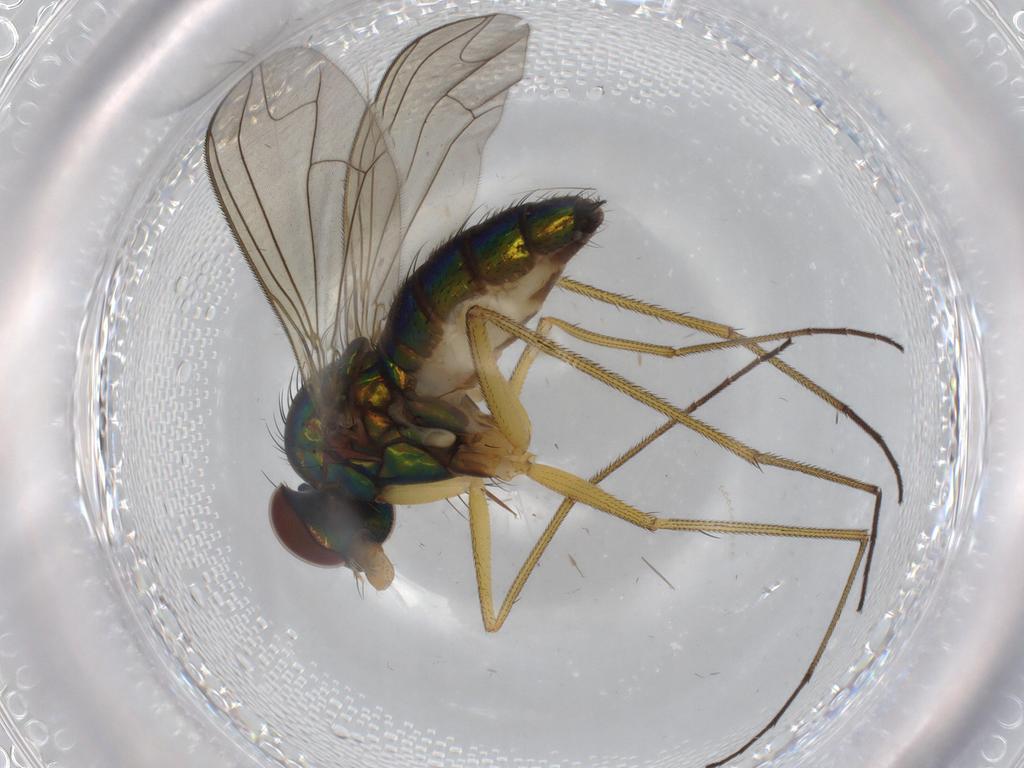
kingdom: Animalia
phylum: Arthropoda
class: Insecta
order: Diptera
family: Dolichopodidae
